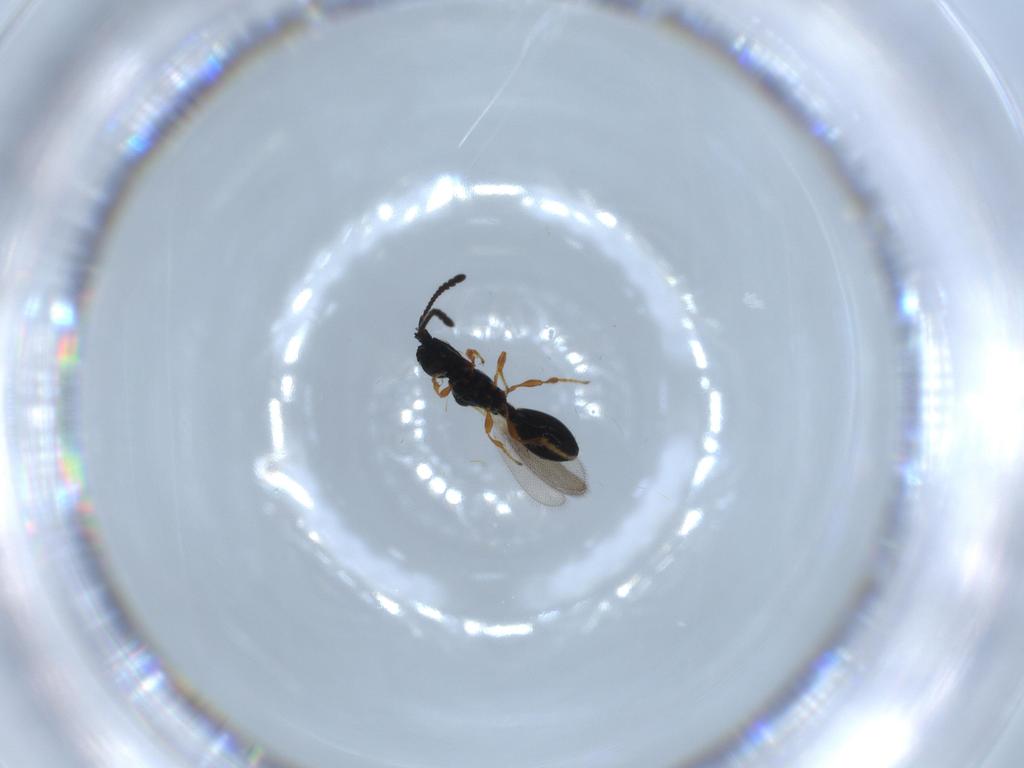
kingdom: Animalia
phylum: Arthropoda
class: Insecta
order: Hymenoptera
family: Diapriidae
